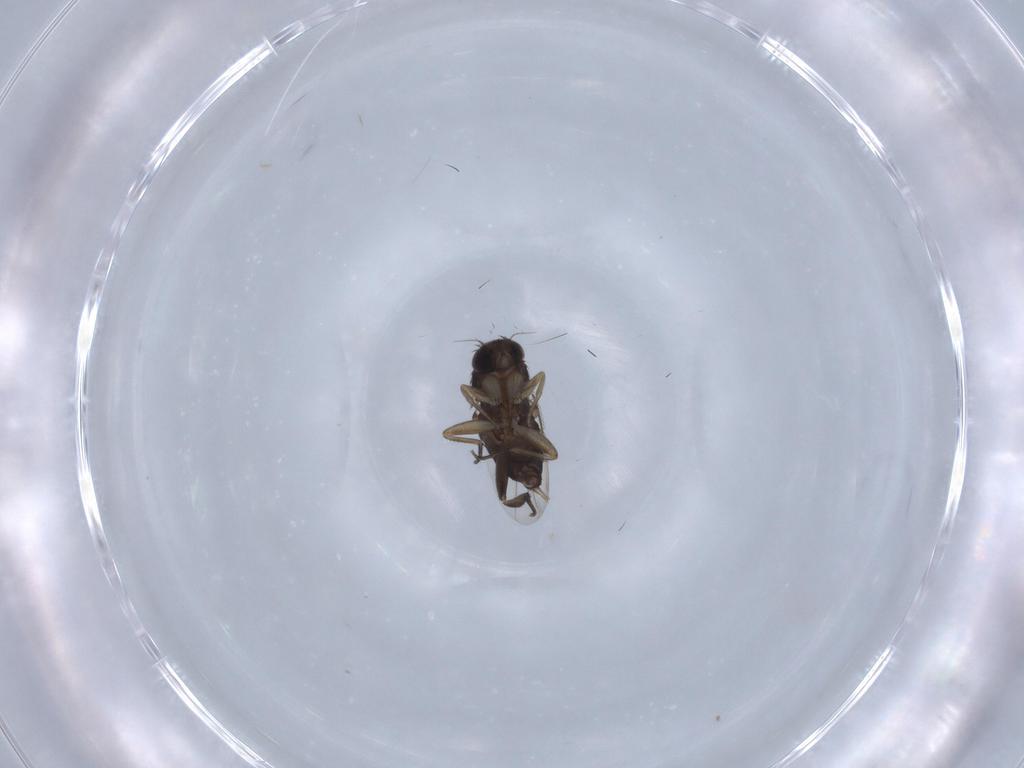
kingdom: Animalia
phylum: Arthropoda
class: Insecta
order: Diptera
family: Phoridae
